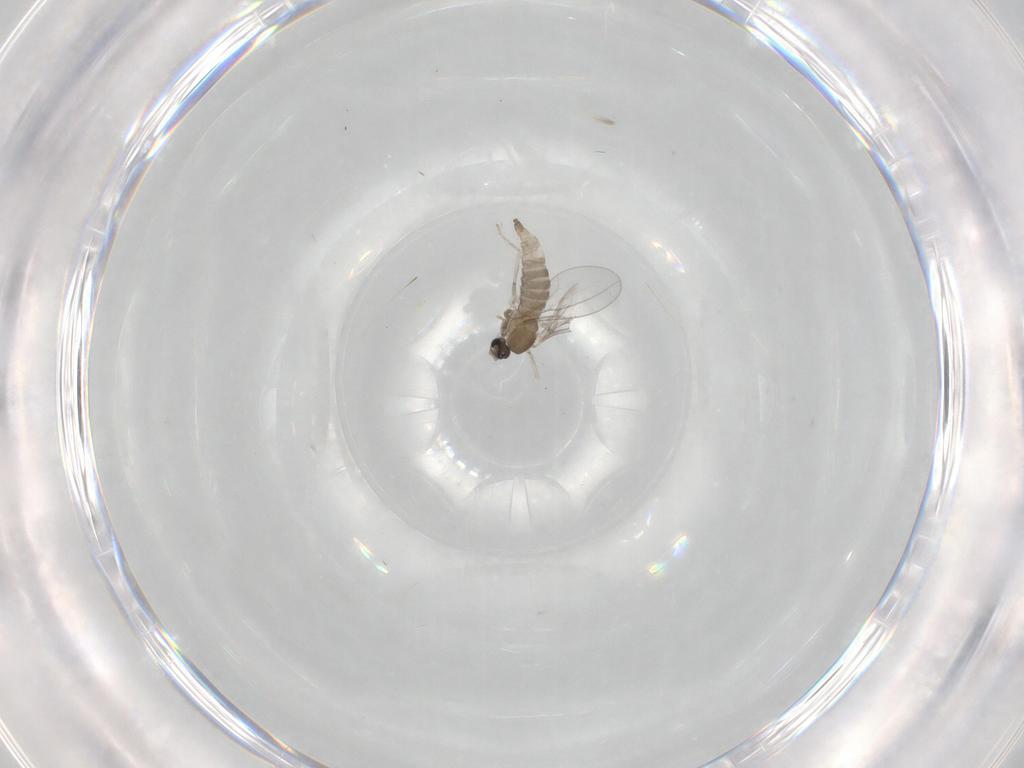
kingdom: Animalia
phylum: Arthropoda
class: Insecta
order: Diptera
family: Cecidomyiidae
